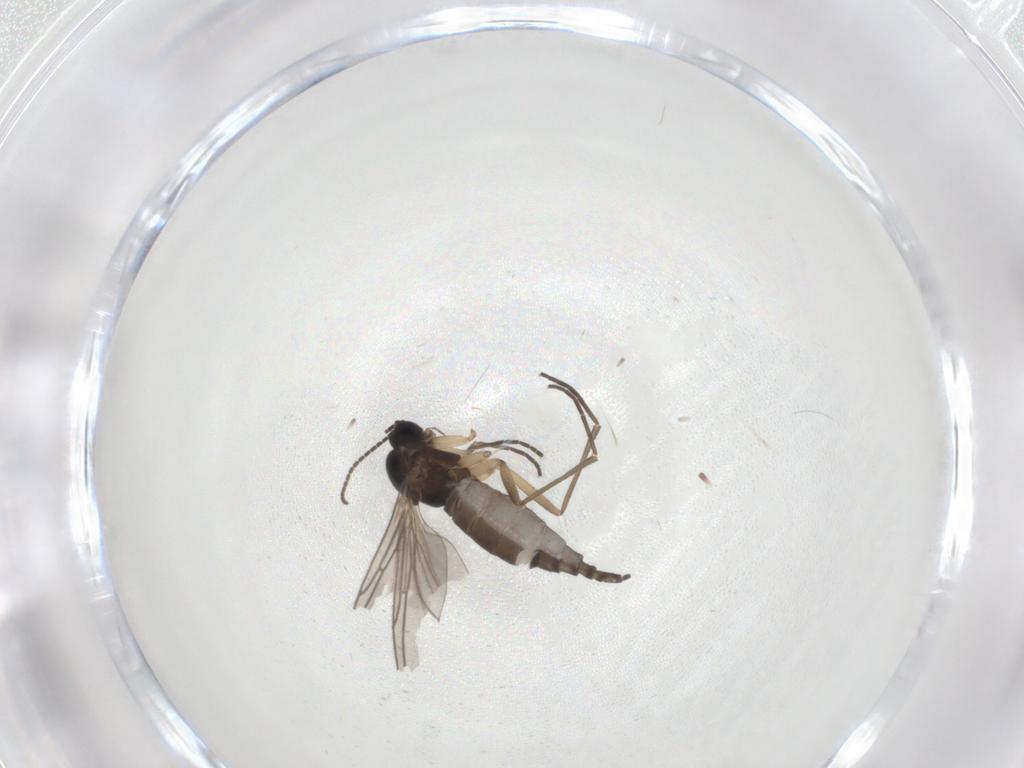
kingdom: Animalia
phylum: Arthropoda
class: Insecta
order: Diptera
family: Sciaridae
